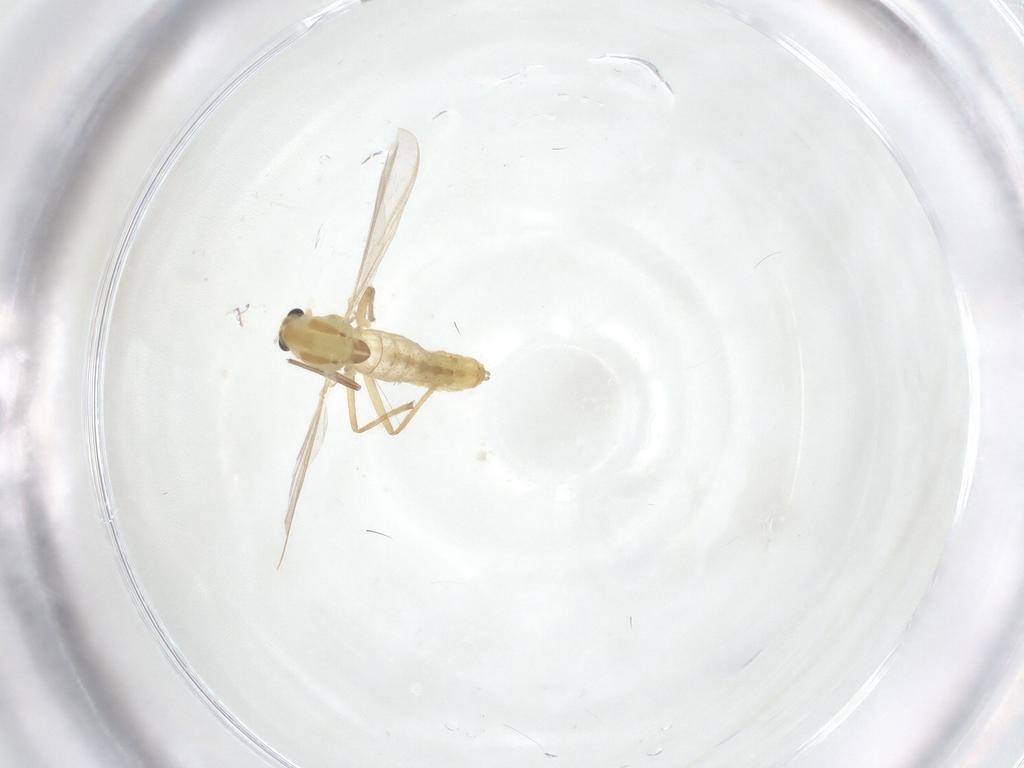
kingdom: Animalia
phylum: Arthropoda
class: Insecta
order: Diptera
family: Chironomidae
